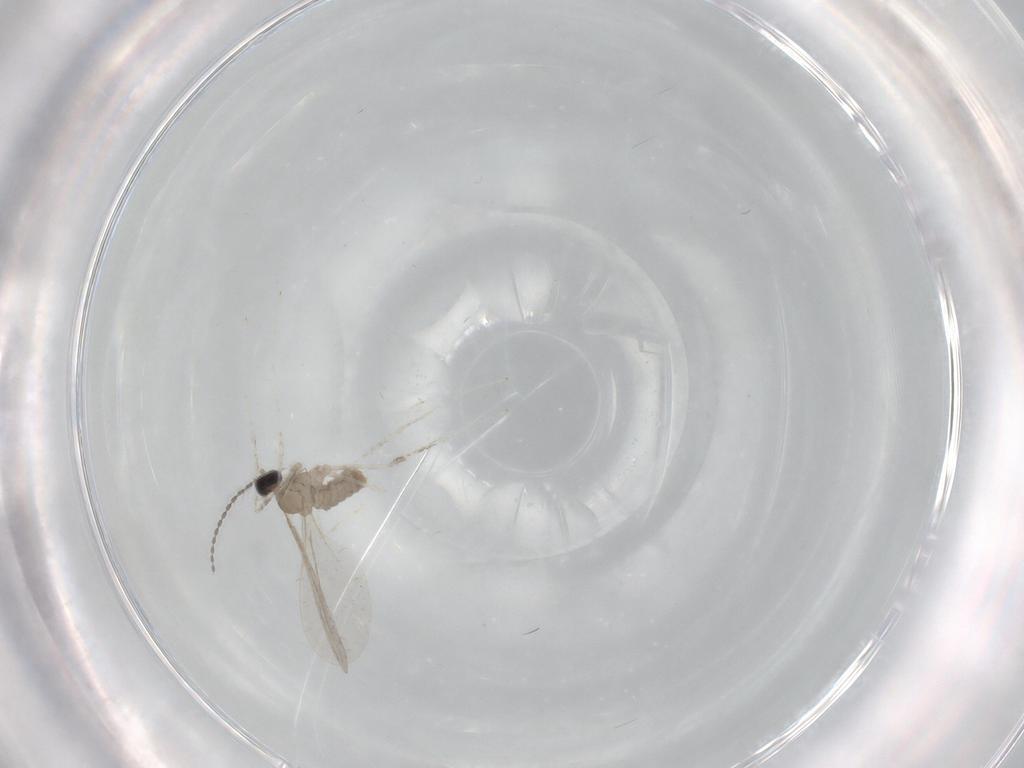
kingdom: Animalia
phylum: Arthropoda
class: Insecta
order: Diptera
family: Cecidomyiidae
